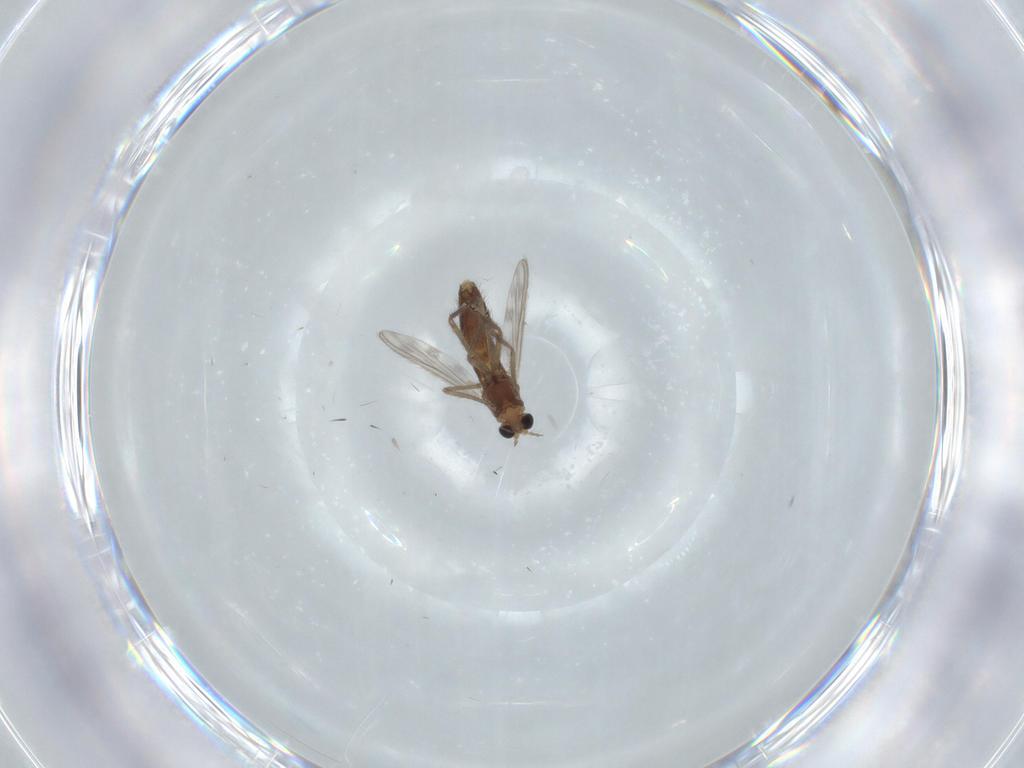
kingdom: Animalia
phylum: Arthropoda
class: Insecta
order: Diptera
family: Chironomidae
